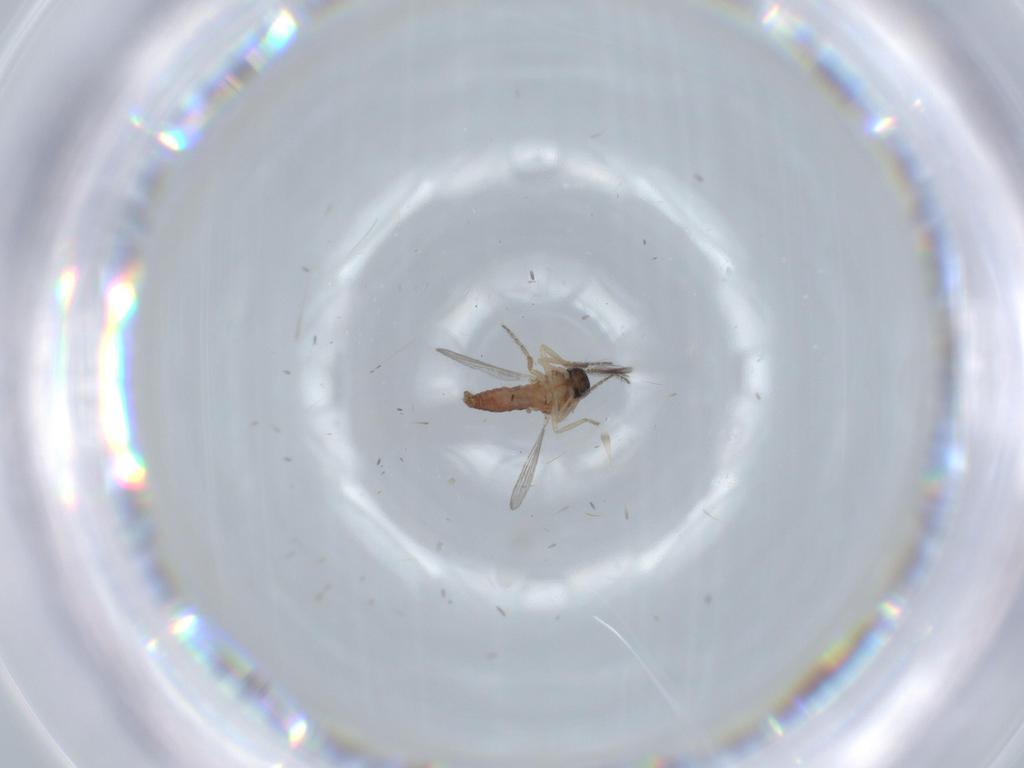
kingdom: Animalia
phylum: Arthropoda
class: Insecta
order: Diptera
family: Ceratopogonidae
